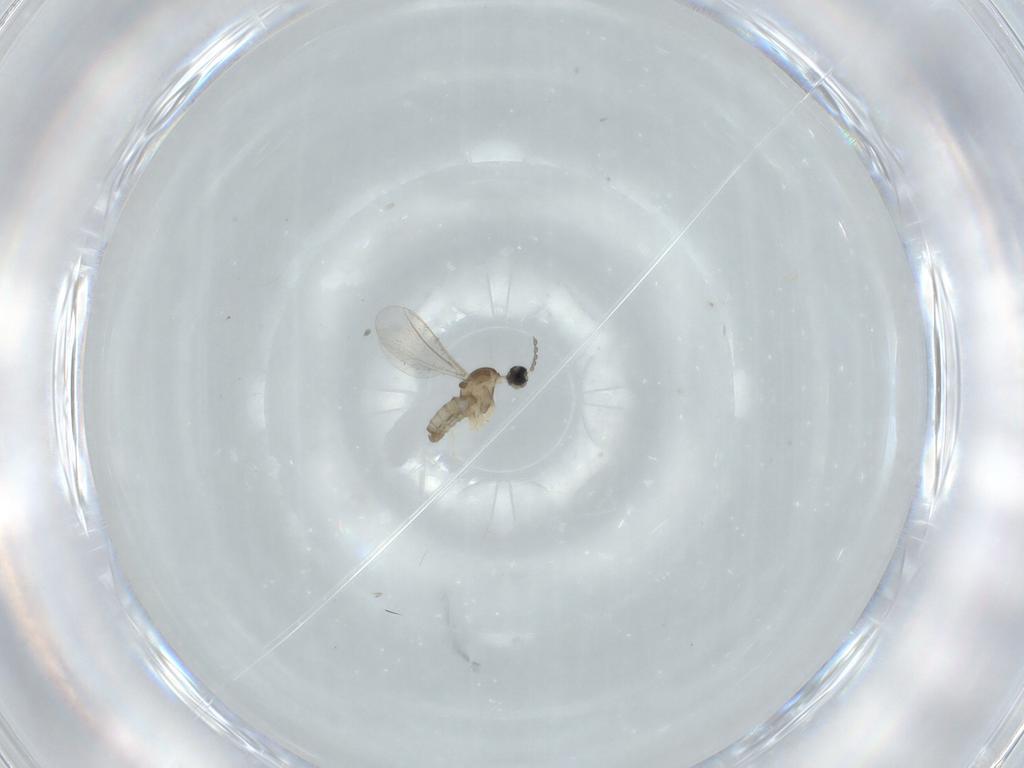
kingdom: Animalia
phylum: Arthropoda
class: Insecta
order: Diptera
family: Cecidomyiidae
